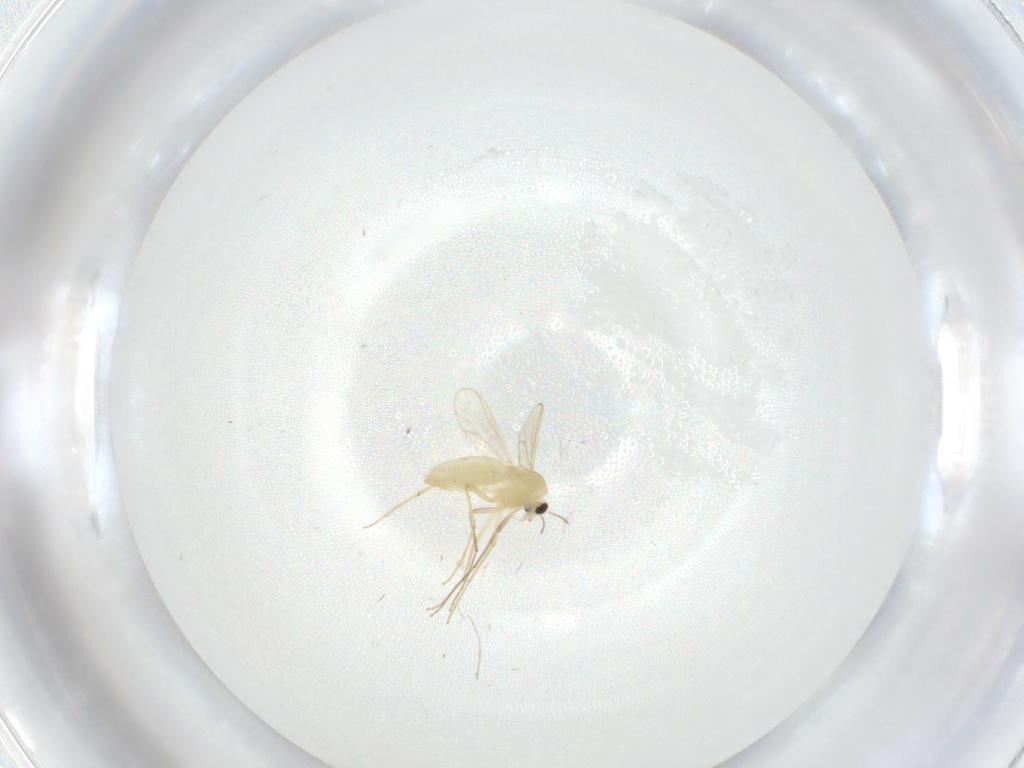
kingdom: Animalia
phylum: Arthropoda
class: Insecta
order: Diptera
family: Chironomidae
